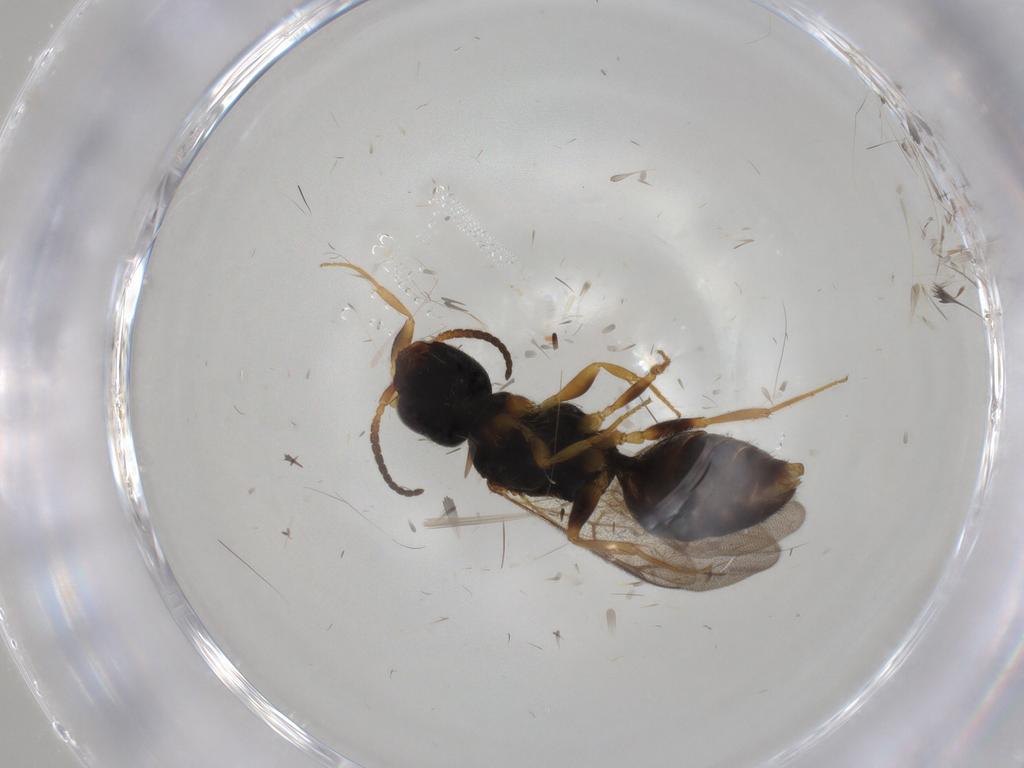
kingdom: Animalia
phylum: Arthropoda
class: Insecta
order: Hymenoptera
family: Bethylidae
